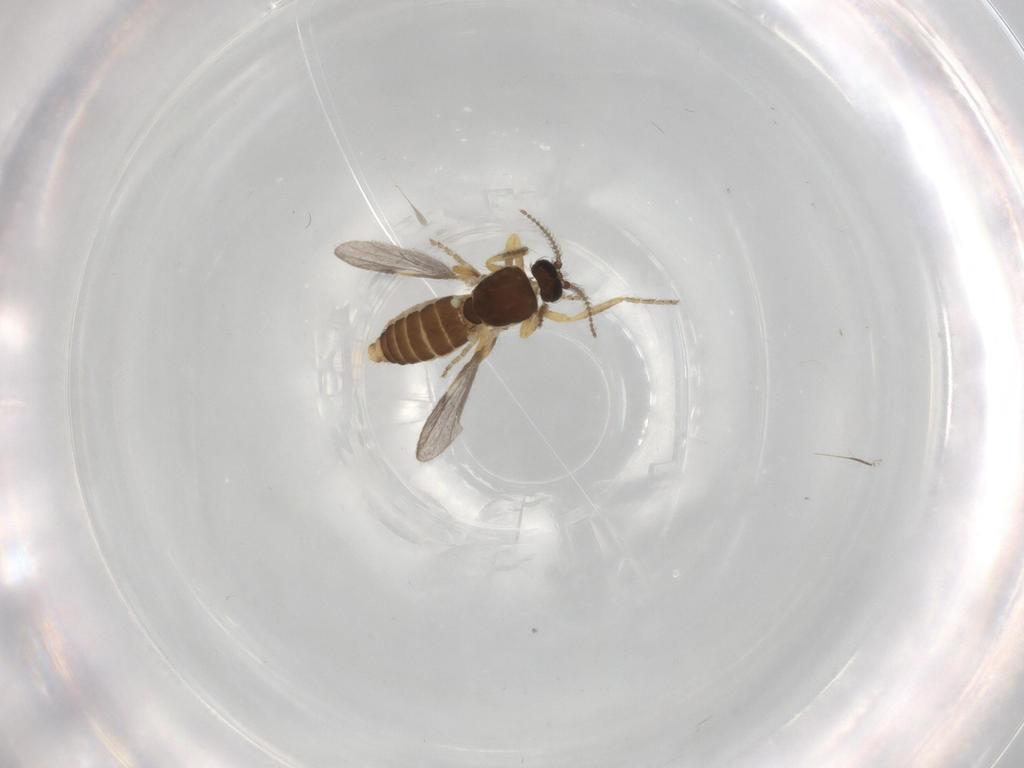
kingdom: Animalia
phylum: Arthropoda
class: Insecta
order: Diptera
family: Ceratopogonidae
